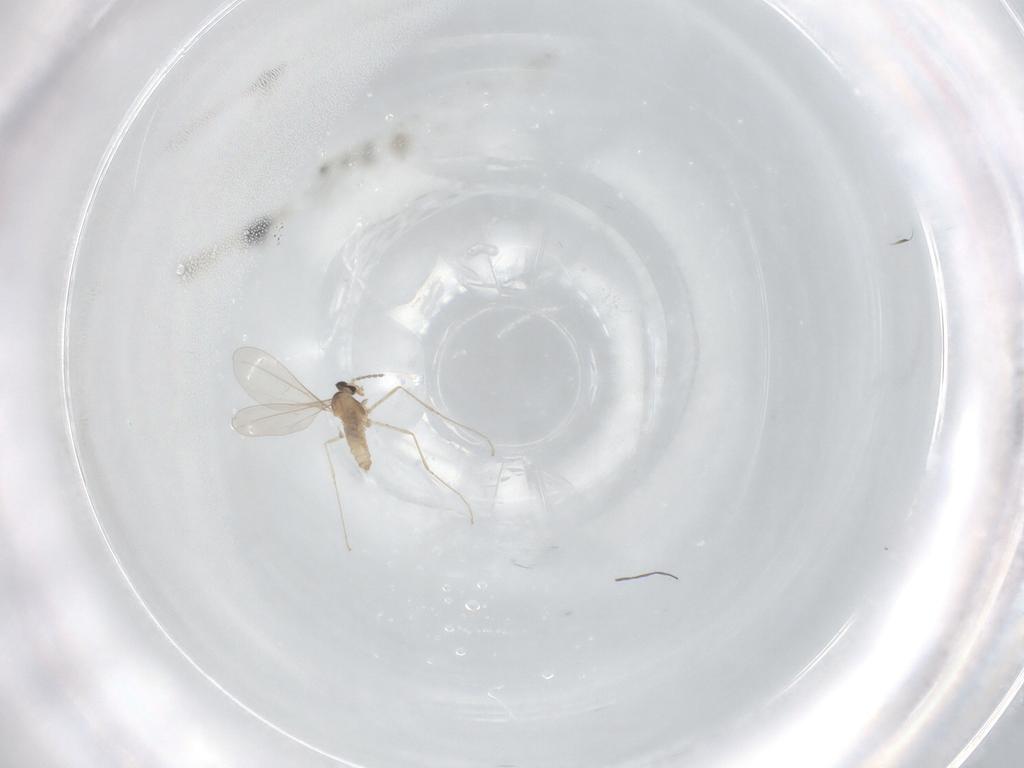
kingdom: Animalia
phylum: Arthropoda
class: Insecta
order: Diptera
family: Cecidomyiidae
